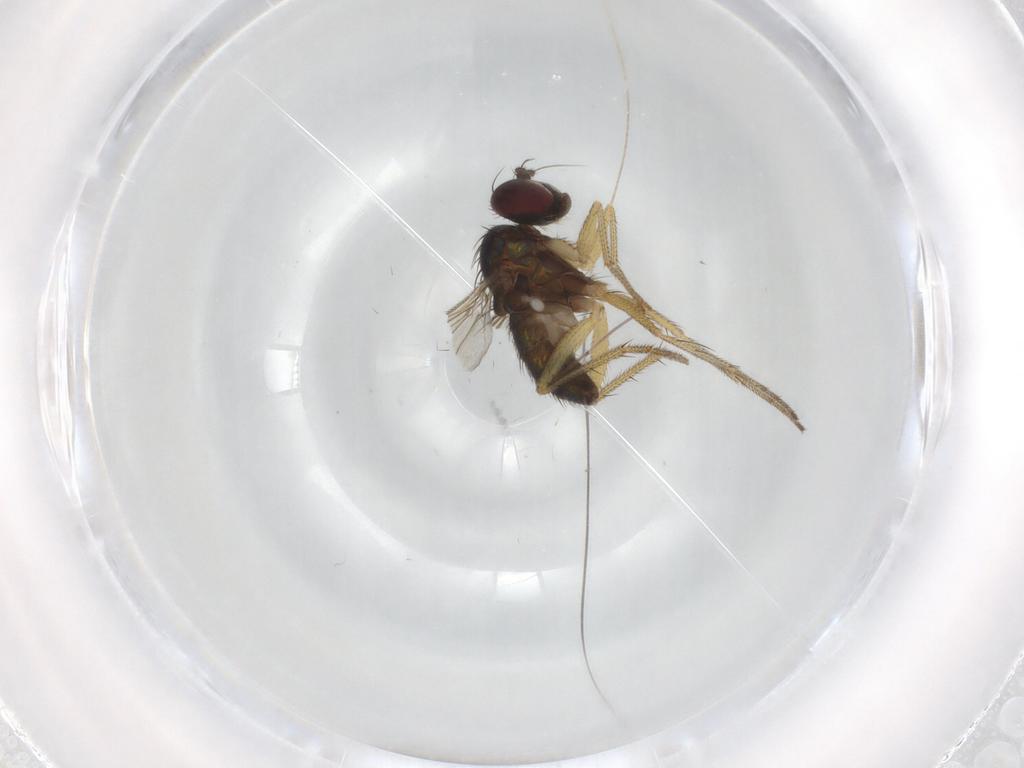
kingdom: Animalia
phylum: Arthropoda
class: Insecta
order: Diptera
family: Dolichopodidae
